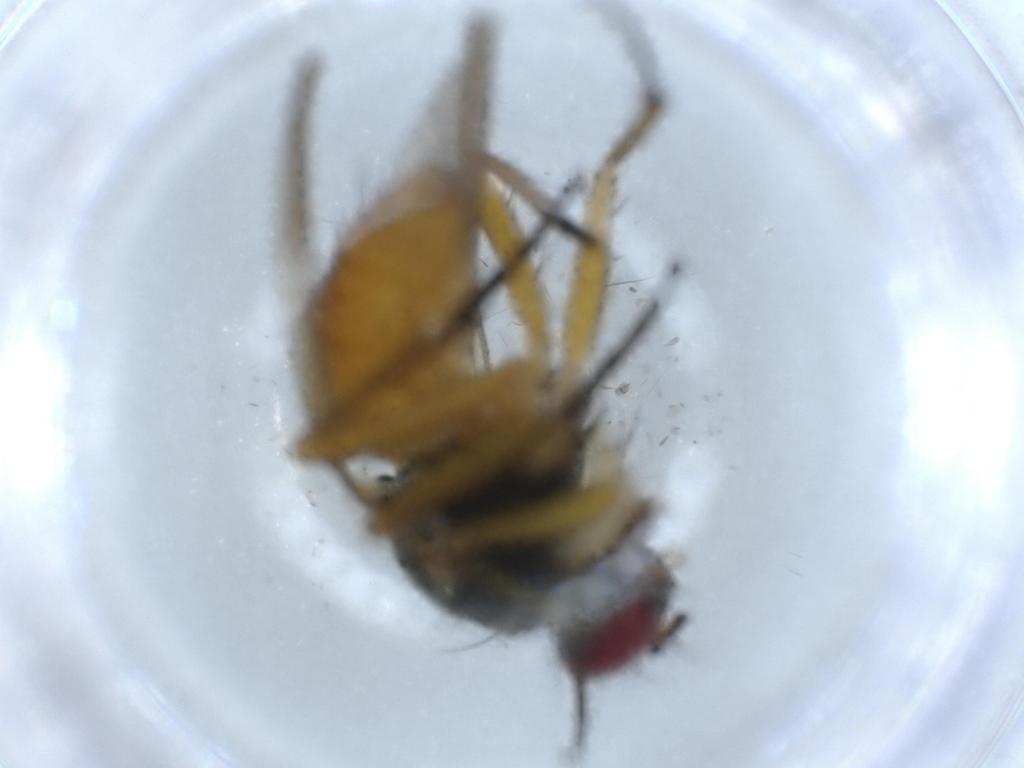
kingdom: Animalia
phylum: Arthropoda
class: Insecta
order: Diptera
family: Muscidae
